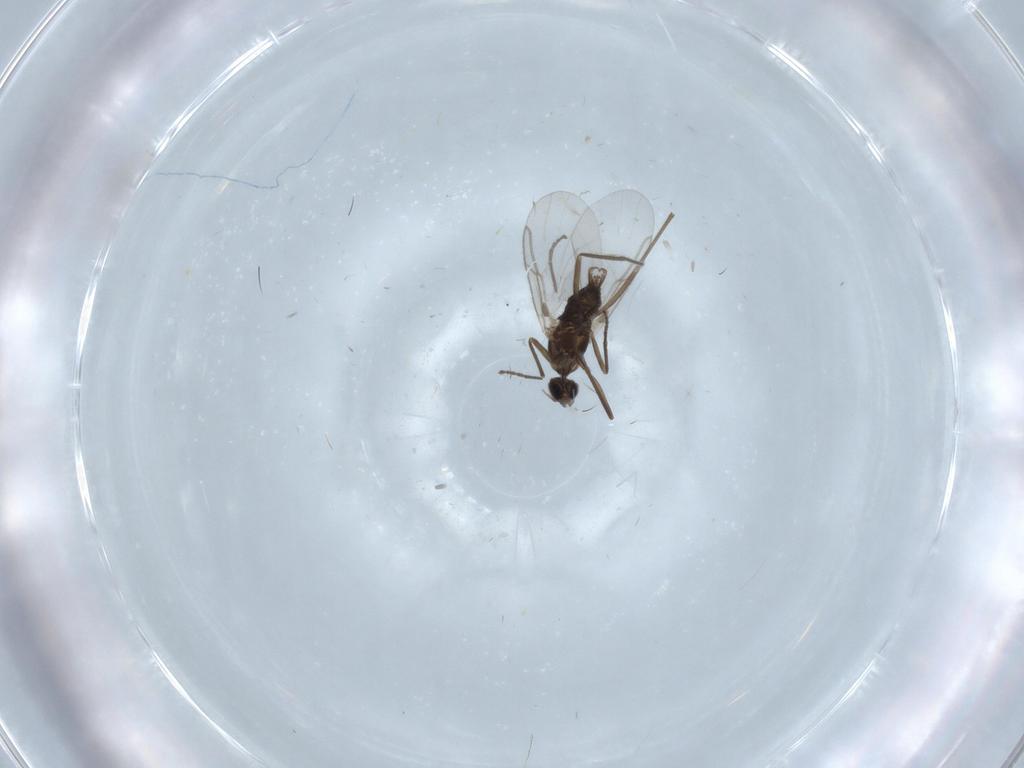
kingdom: Animalia
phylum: Arthropoda
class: Insecta
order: Diptera
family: Cecidomyiidae
